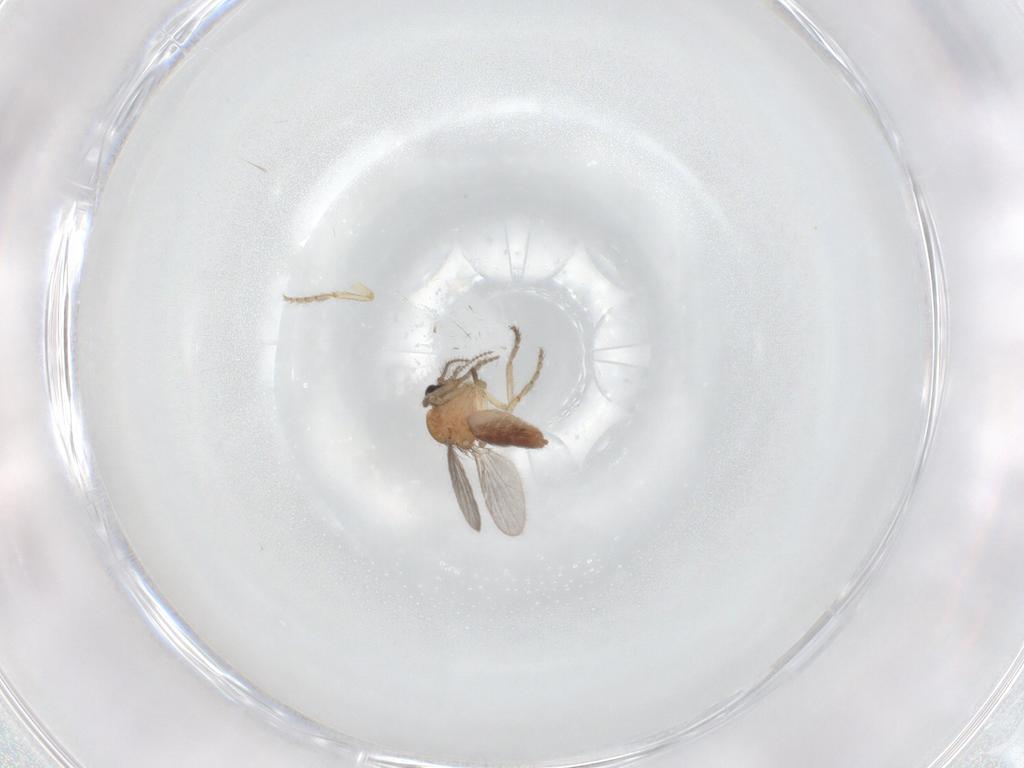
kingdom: Animalia
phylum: Arthropoda
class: Insecta
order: Diptera
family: Ceratopogonidae
